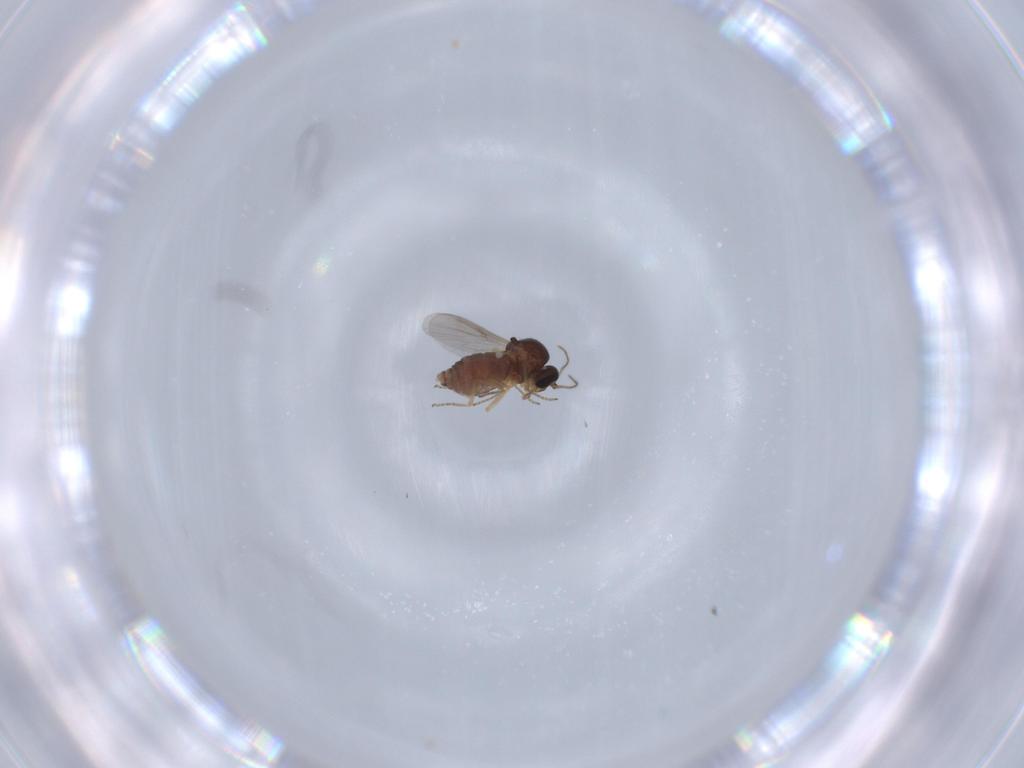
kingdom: Animalia
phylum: Arthropoda
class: Insecta
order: Diptera
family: Ceratopogonidae
